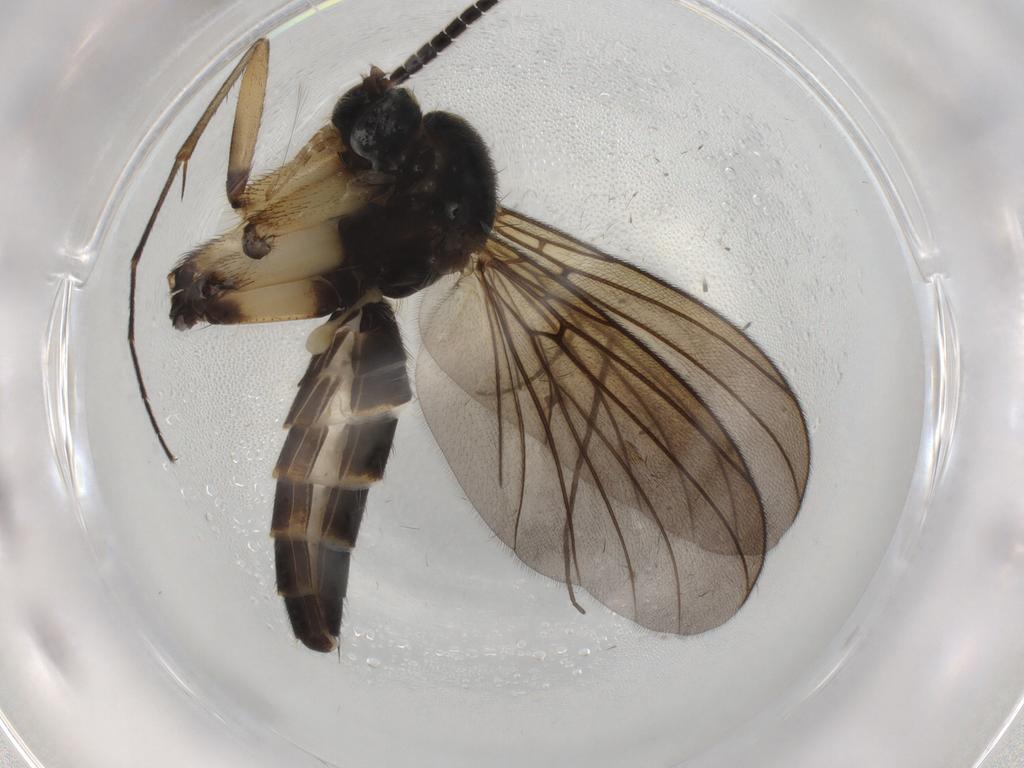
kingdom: Animalia
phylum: Arthropoda
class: Insecta
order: Diptera
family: Mycetophilidae
